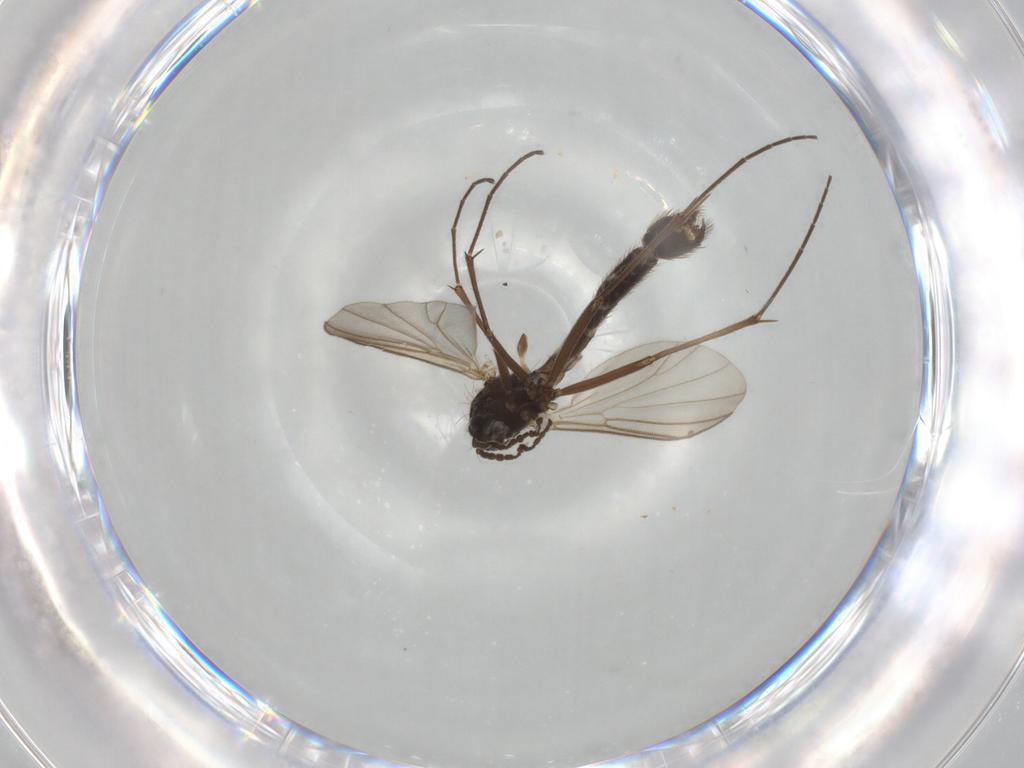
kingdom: Animalia
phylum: Arthropoda
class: Insecta
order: Diptera
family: Mycetophilidae
